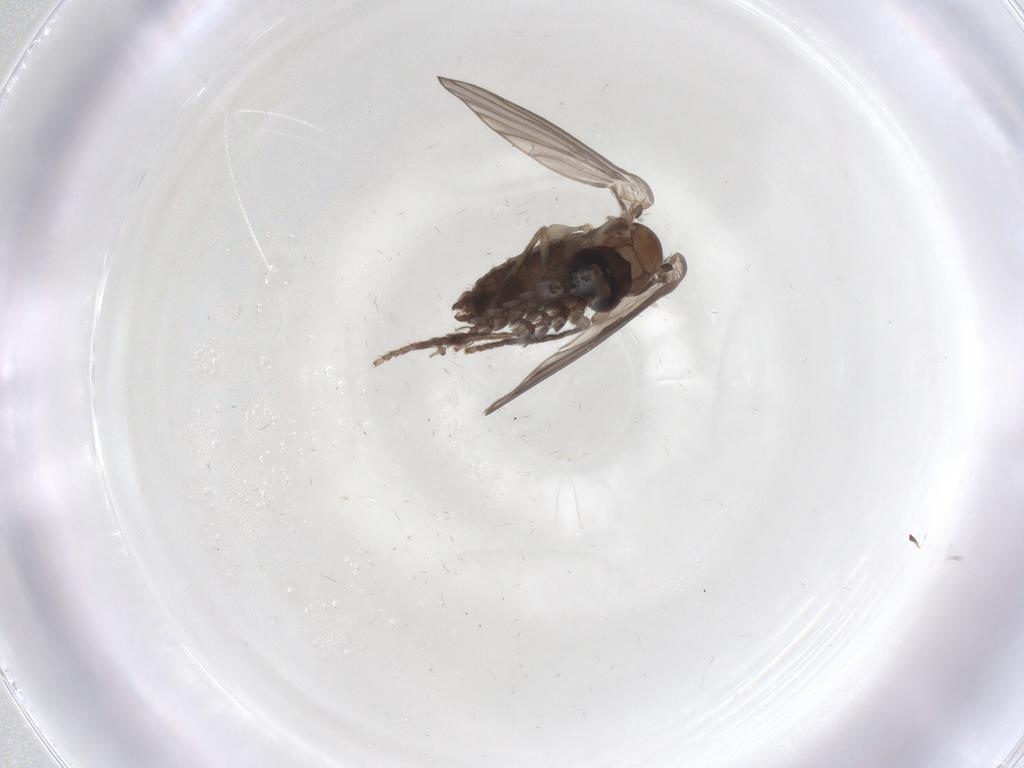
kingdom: Animalia
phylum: Arthropoda
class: Insecta
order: Diptera
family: Psychodidae
